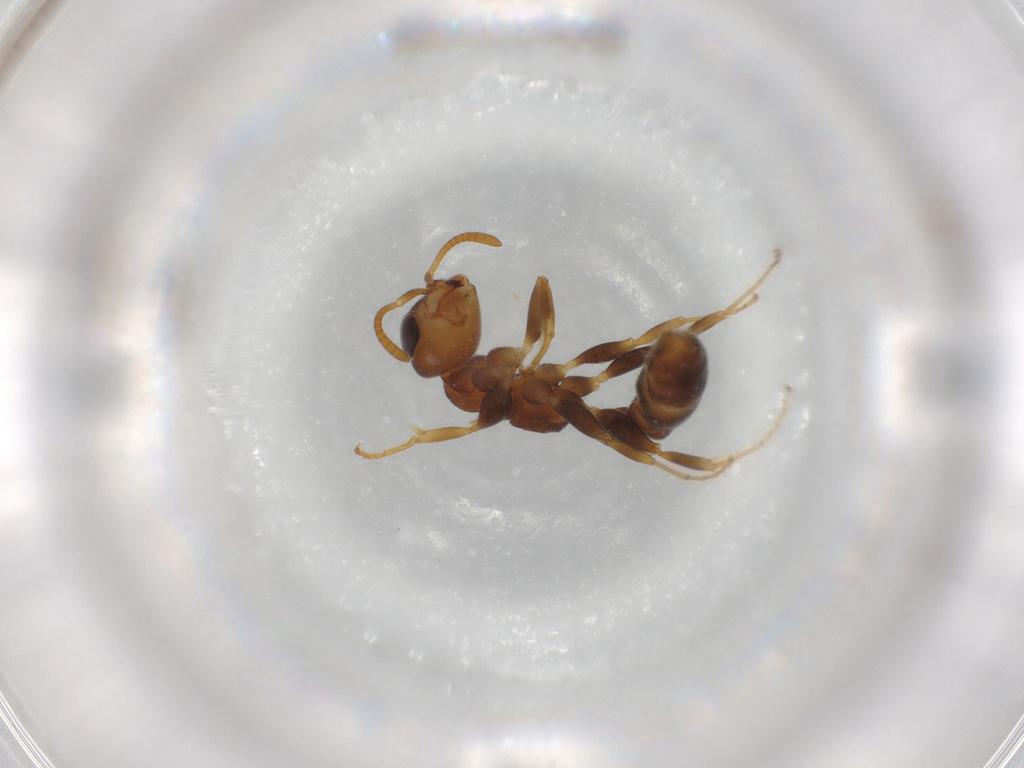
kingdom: Animalia
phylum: Arthropoda
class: Insecta
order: Hymenoptera
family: Formicidae
